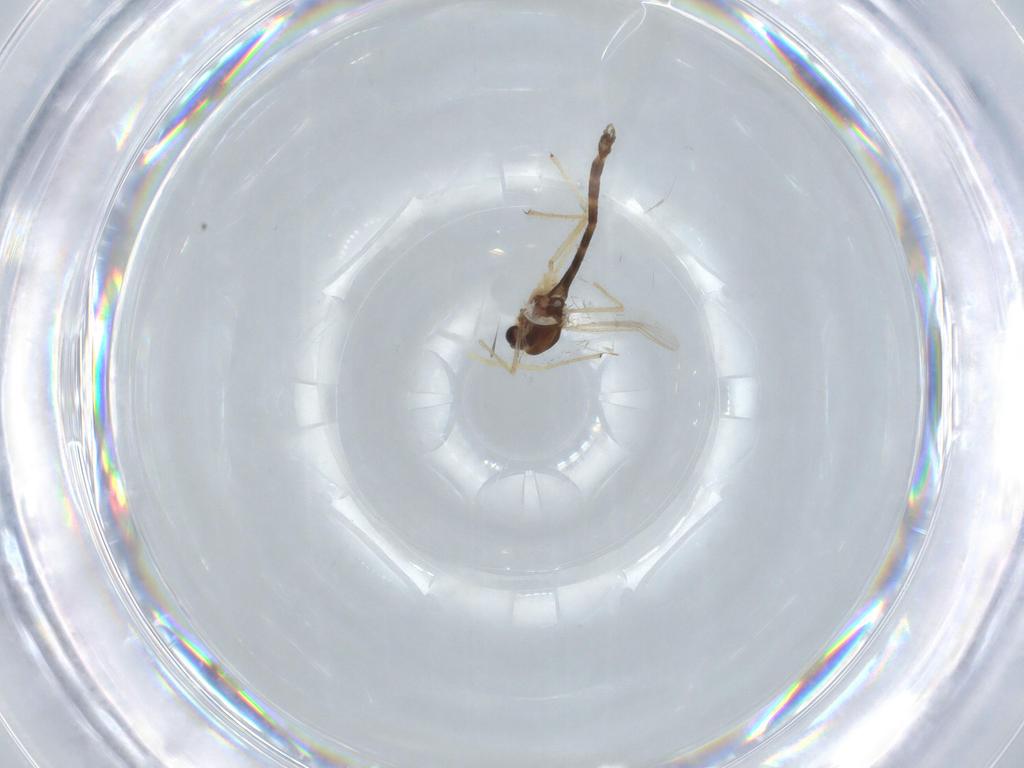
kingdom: Animalia
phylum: Arthropoda
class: Insecta
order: Diptera
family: Chironomidae
